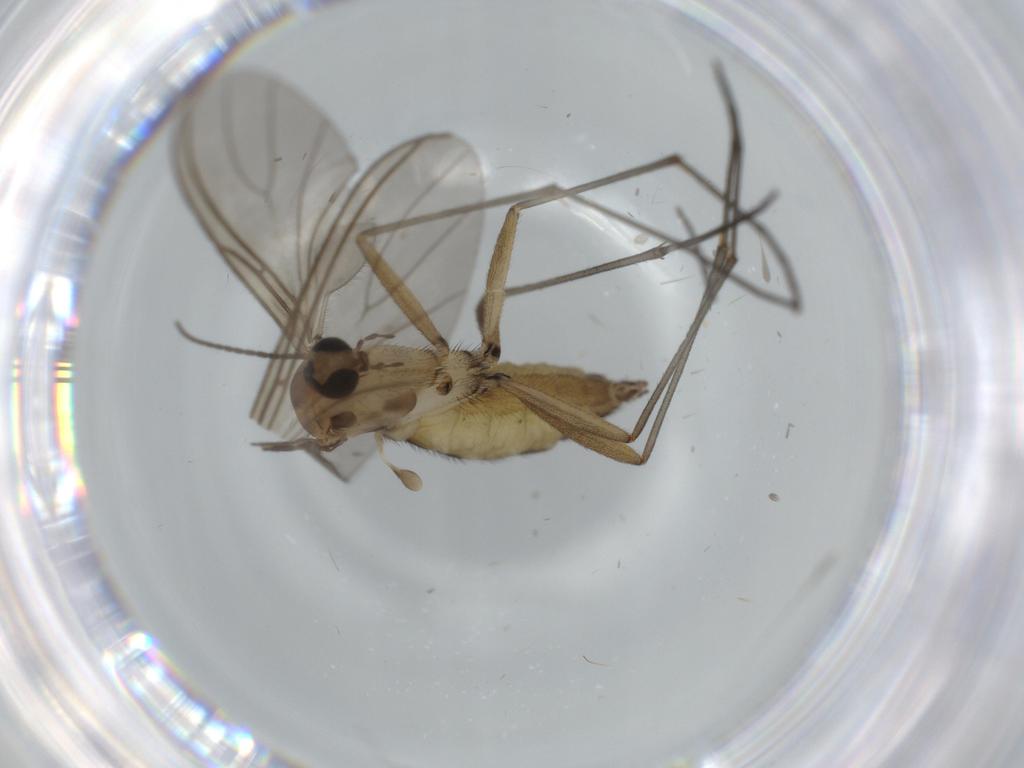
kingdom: Animalia
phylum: Arthropoda
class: Insecta
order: Diptera
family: Sciaridae
